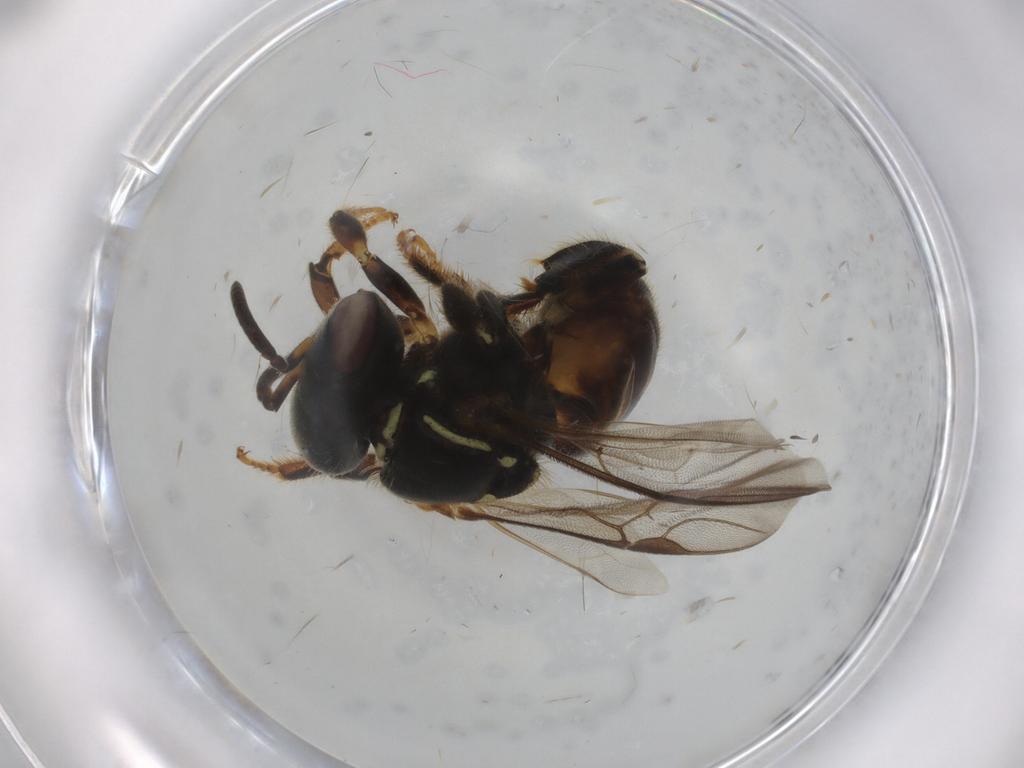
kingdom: Animalia
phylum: Arthropoda
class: Insecta
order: Hymenoptera
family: Apidae
